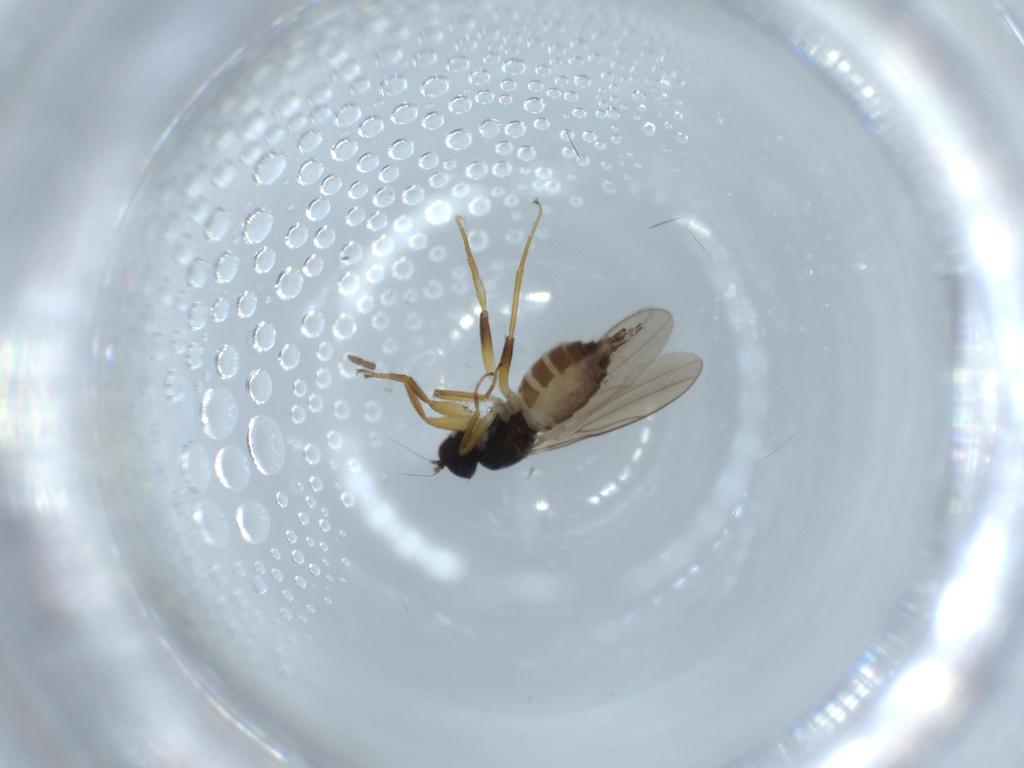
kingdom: Animalia
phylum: Arthropoda
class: Insecta
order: Diptera
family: Hybotidae
